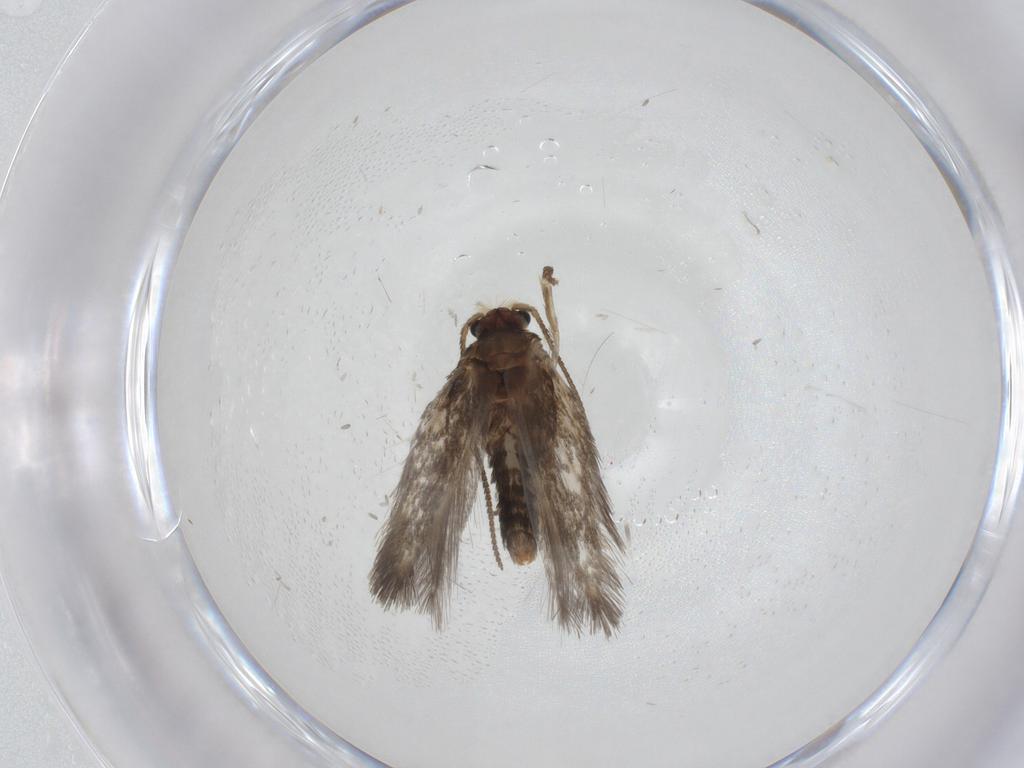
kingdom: Animalia
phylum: Arthropoda
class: Insecta
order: Lepidoptera
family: Nepticulidae
